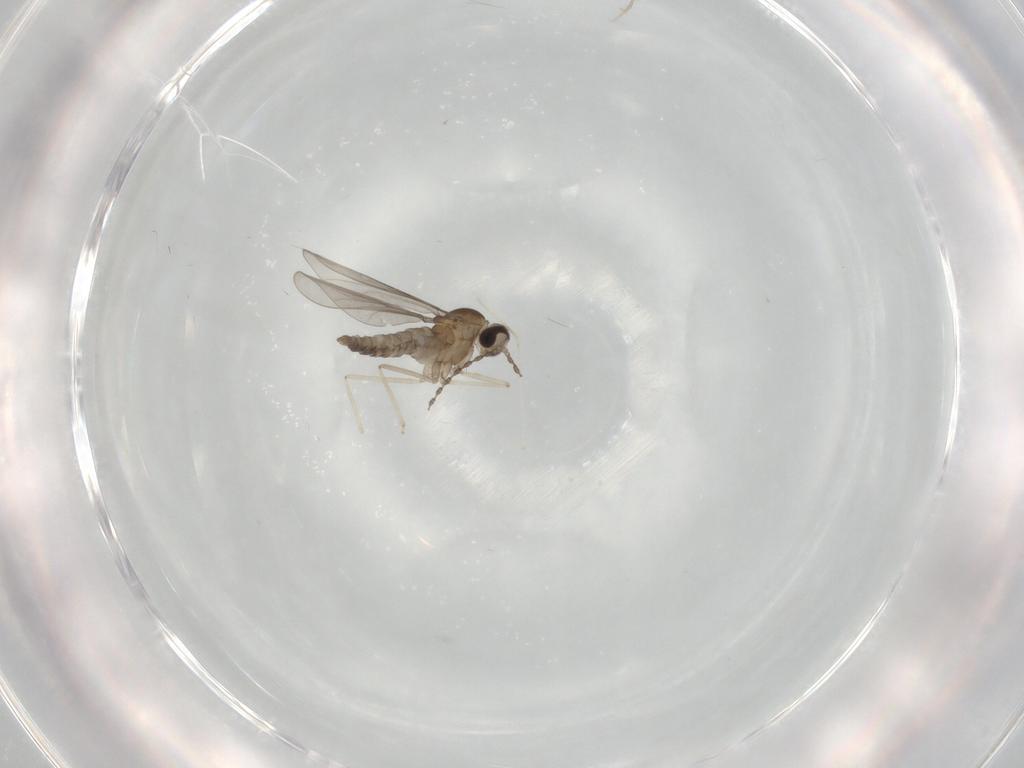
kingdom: Animalia
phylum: Arthropoda
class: Insecta
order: Diptera
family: Cecidomyiidae
